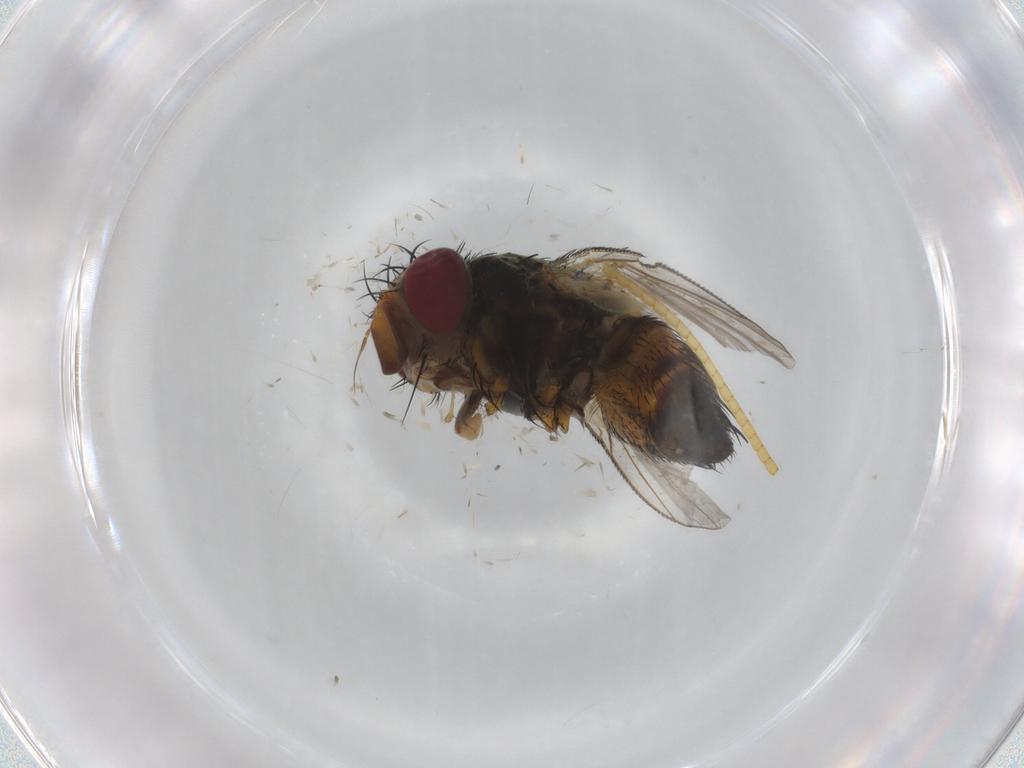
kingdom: Animalia
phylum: Arthropoda
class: Insecta
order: Diptera
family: Tachinidae
